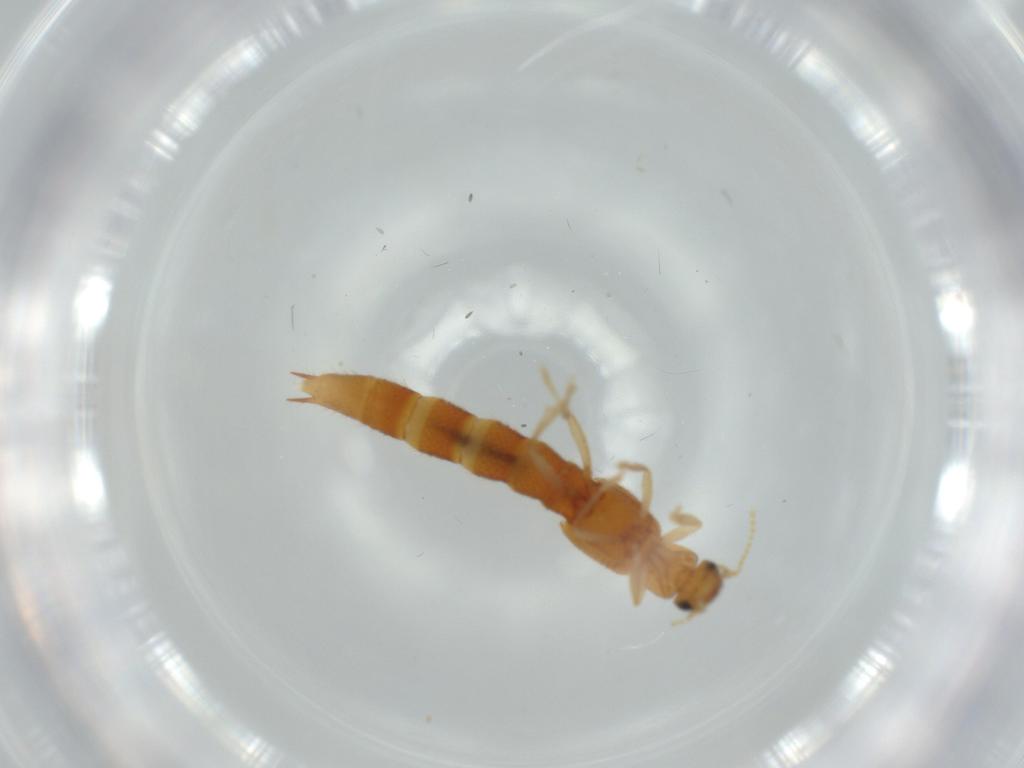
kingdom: Animalia
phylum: Arthropoda
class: Insecta
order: Coleoptera
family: Staphylinidae
